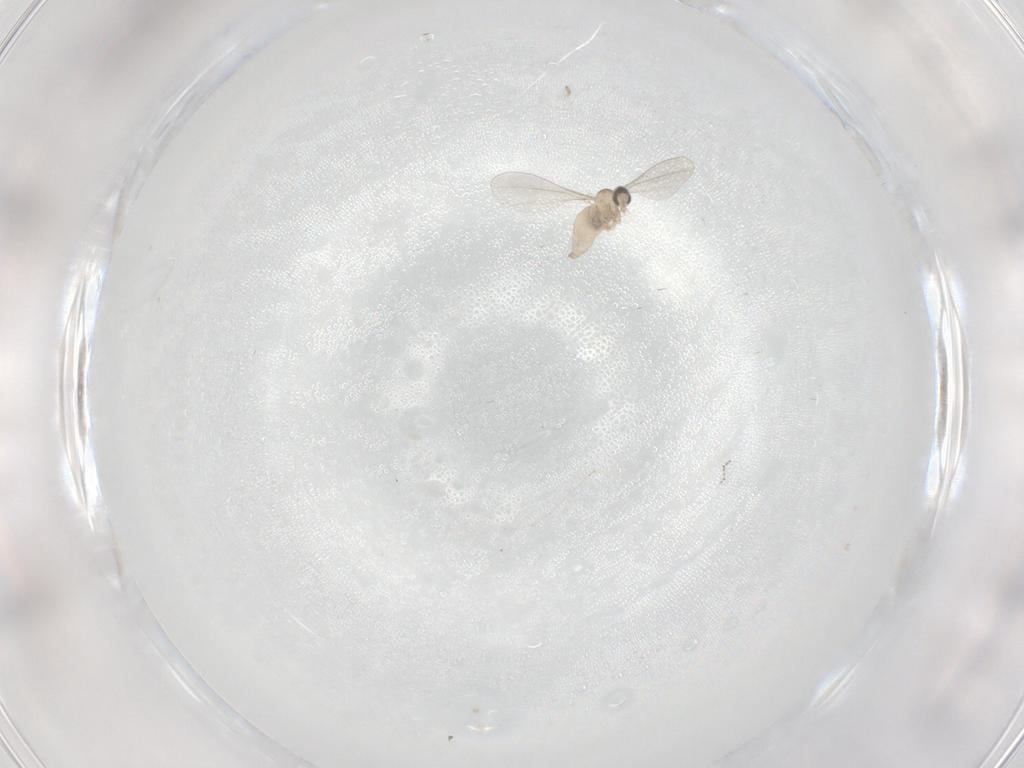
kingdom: Animalia
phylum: Arthropoda
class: Insecta
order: Diptera
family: Cecidomyiidae
